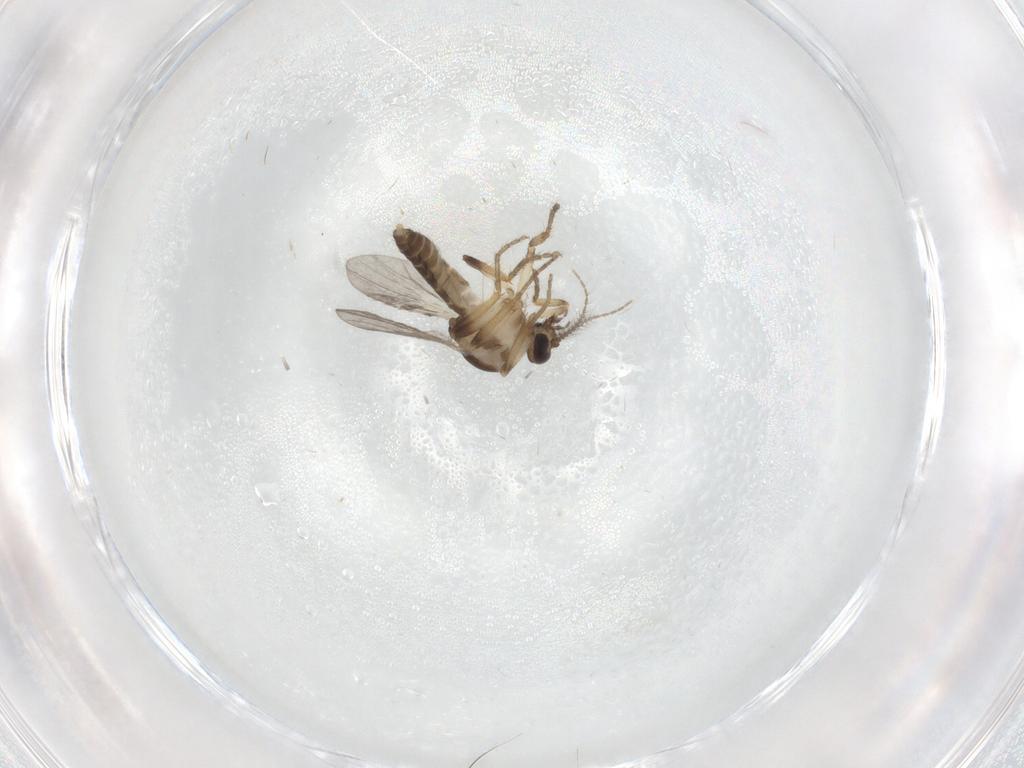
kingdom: Animalia
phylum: Arthropoda
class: Insecta
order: Diptera
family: Ceratopogonidae
